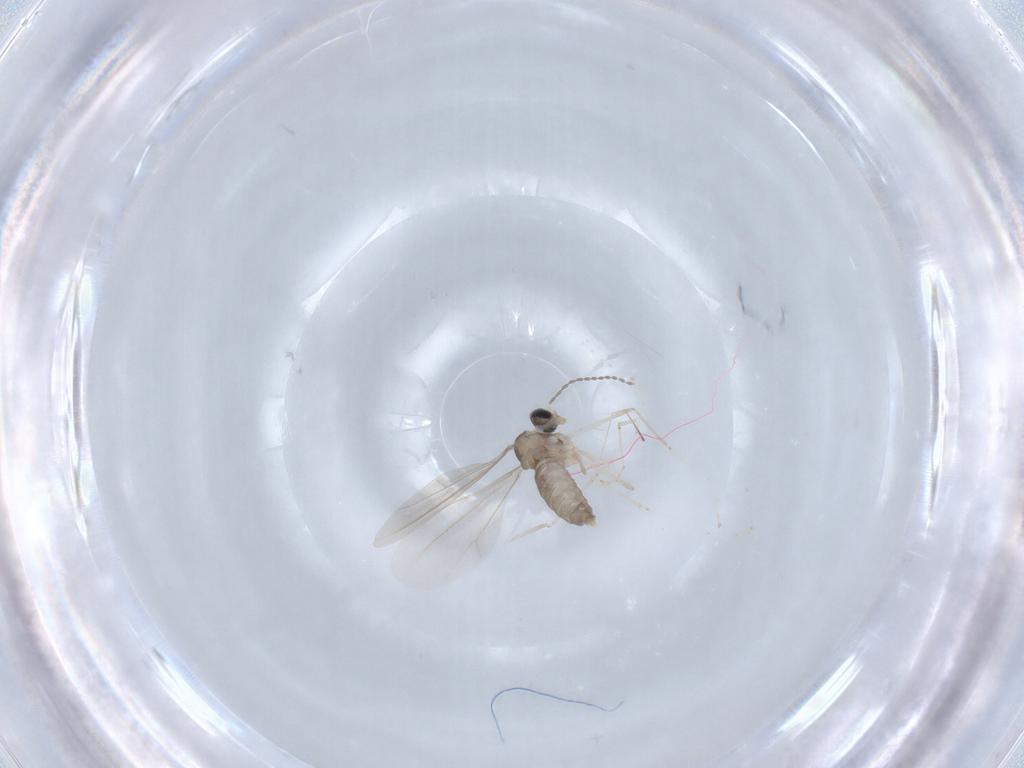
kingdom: Animalia
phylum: Arthropoda
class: Insecta
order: Diptera
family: Cecidomyiidae
